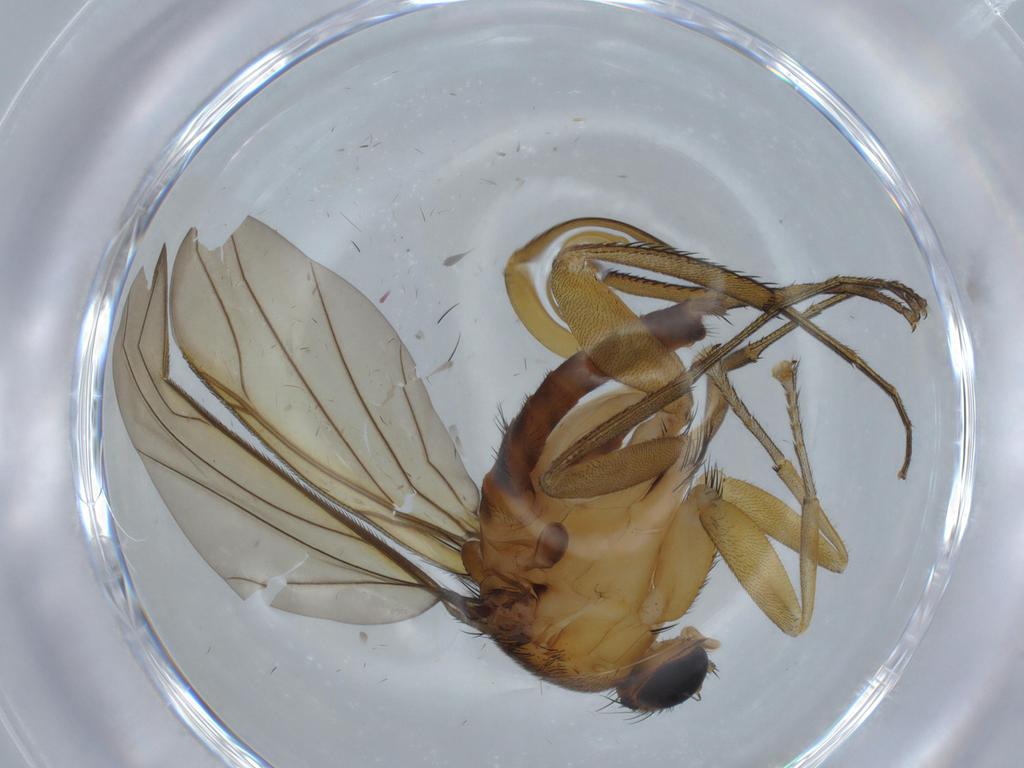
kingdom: Animalia
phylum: Arthropoda
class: Insecta
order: Diptera
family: Phoridae
